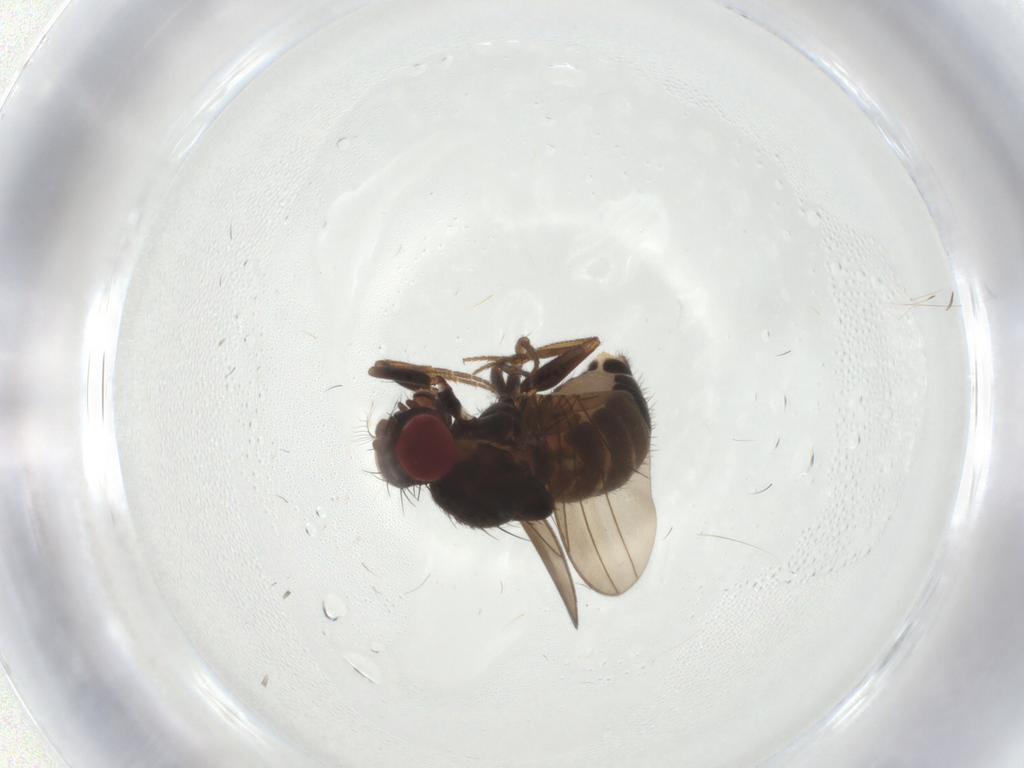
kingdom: Animalia
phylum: Arthropoda
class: Insecta
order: Diptera
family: Drosophilidae
